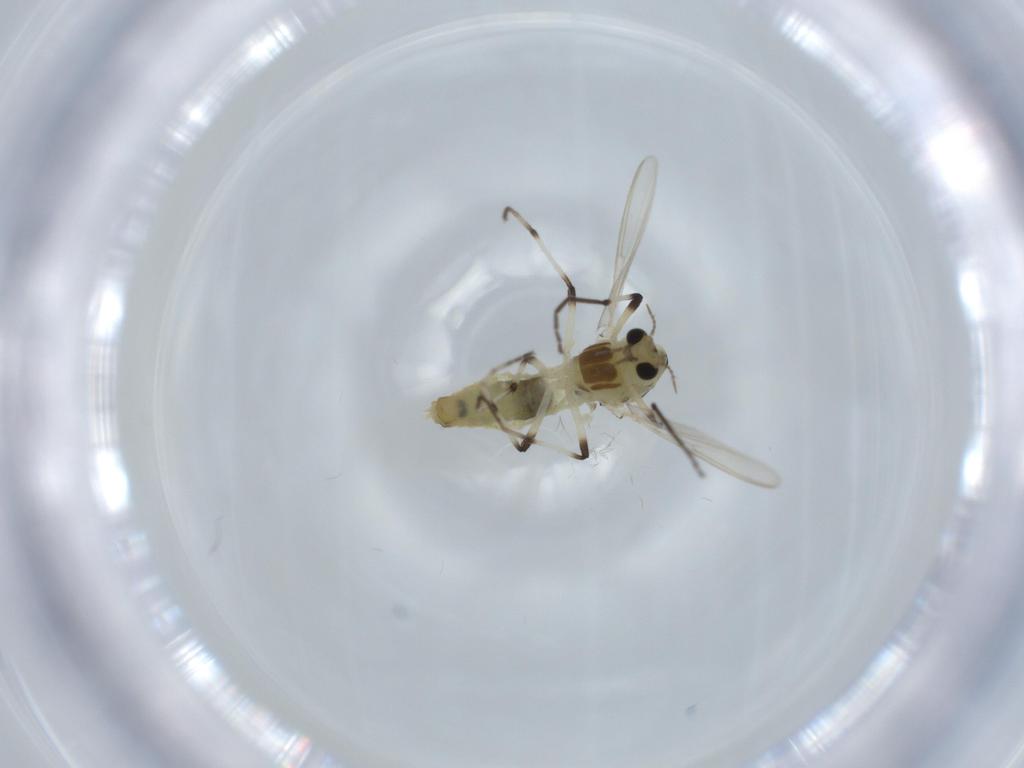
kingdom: Animalia
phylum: Arthropoda
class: Insecta
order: Diptera
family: Chironomidae
